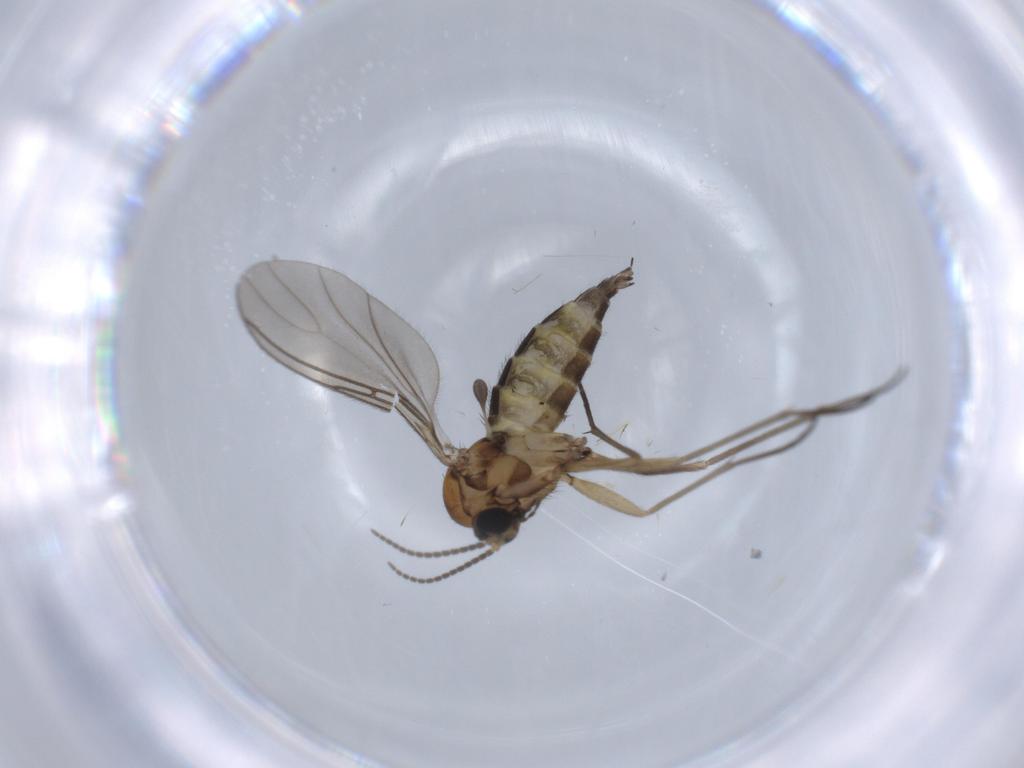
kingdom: Animalia
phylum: Arthropoda
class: Insecta
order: Diptera
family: Sciaridae
